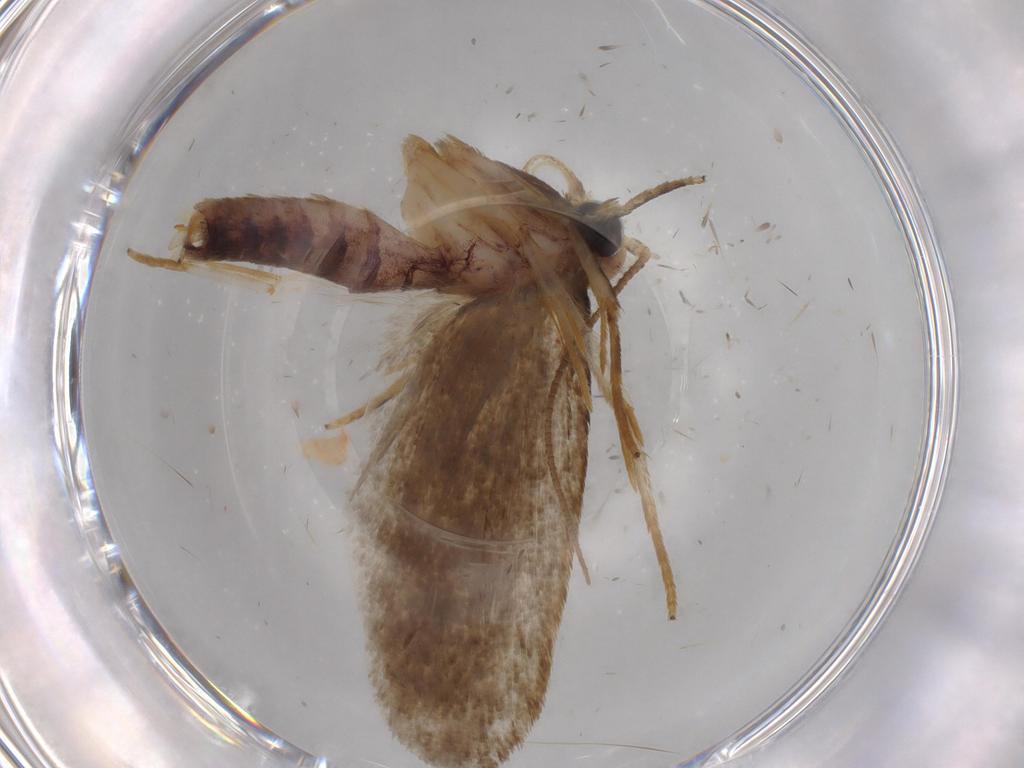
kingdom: Animalia
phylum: Arthropoda
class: Insecta
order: Lepidoptera
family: Oecophoridae
